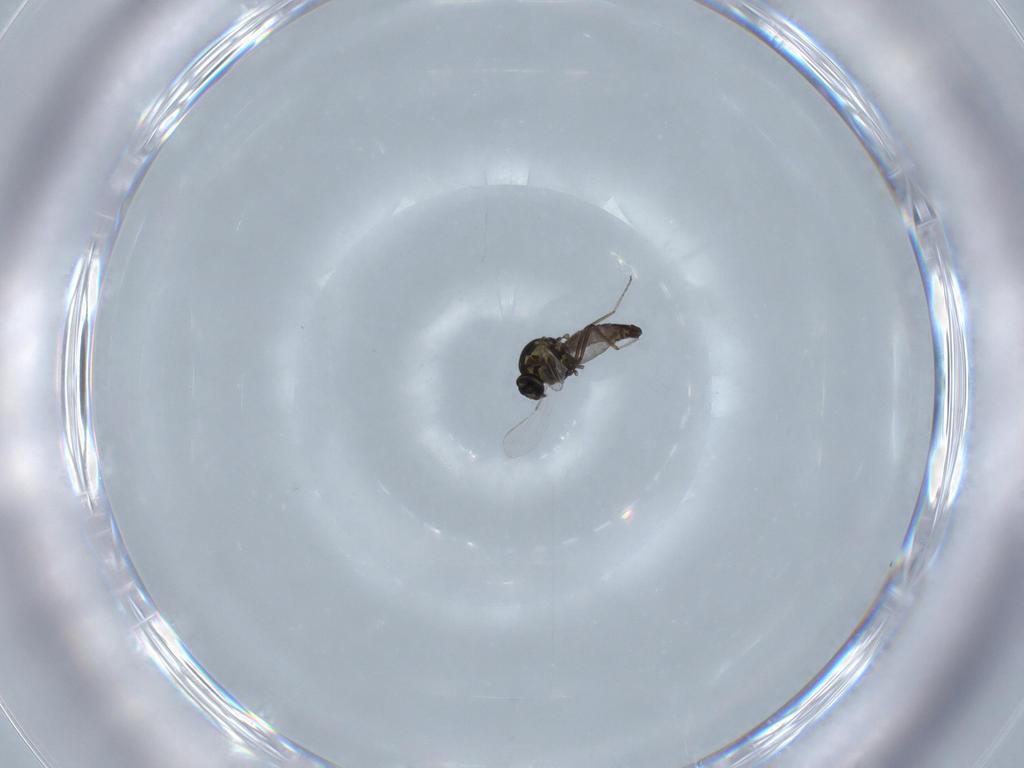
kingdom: Animalia
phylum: Arthropoda
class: Insecta
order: Diptera
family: Ceratopogonidae
